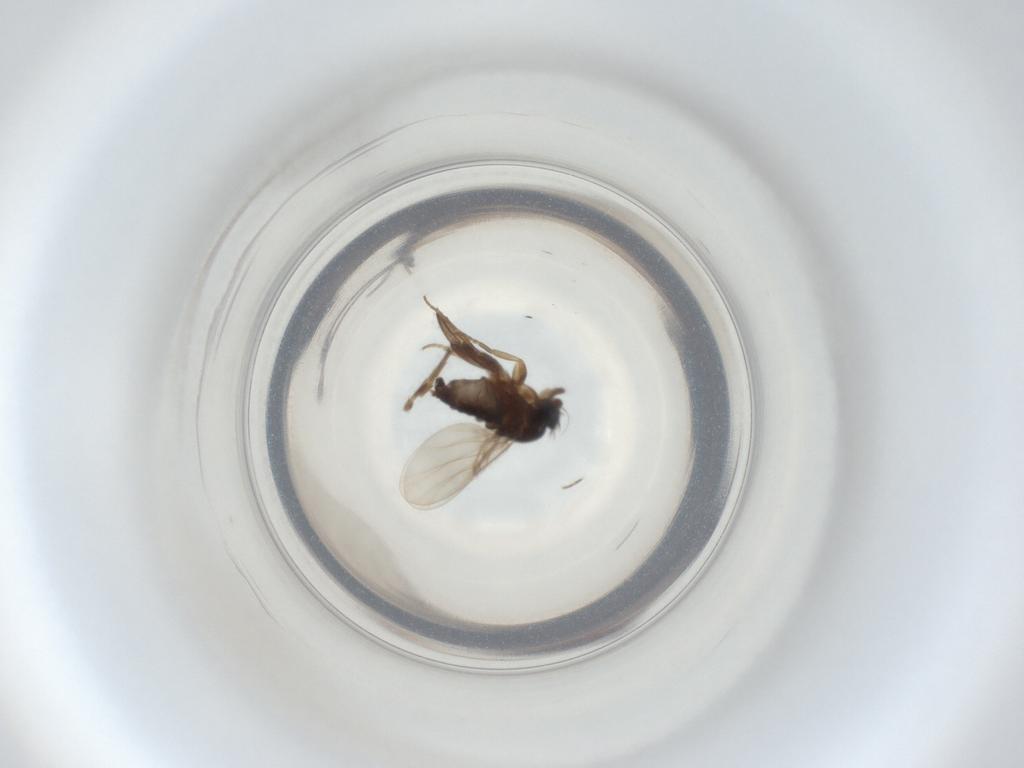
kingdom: Animalia
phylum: Arthropoda
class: Insecta
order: Diptera
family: Phoridae
